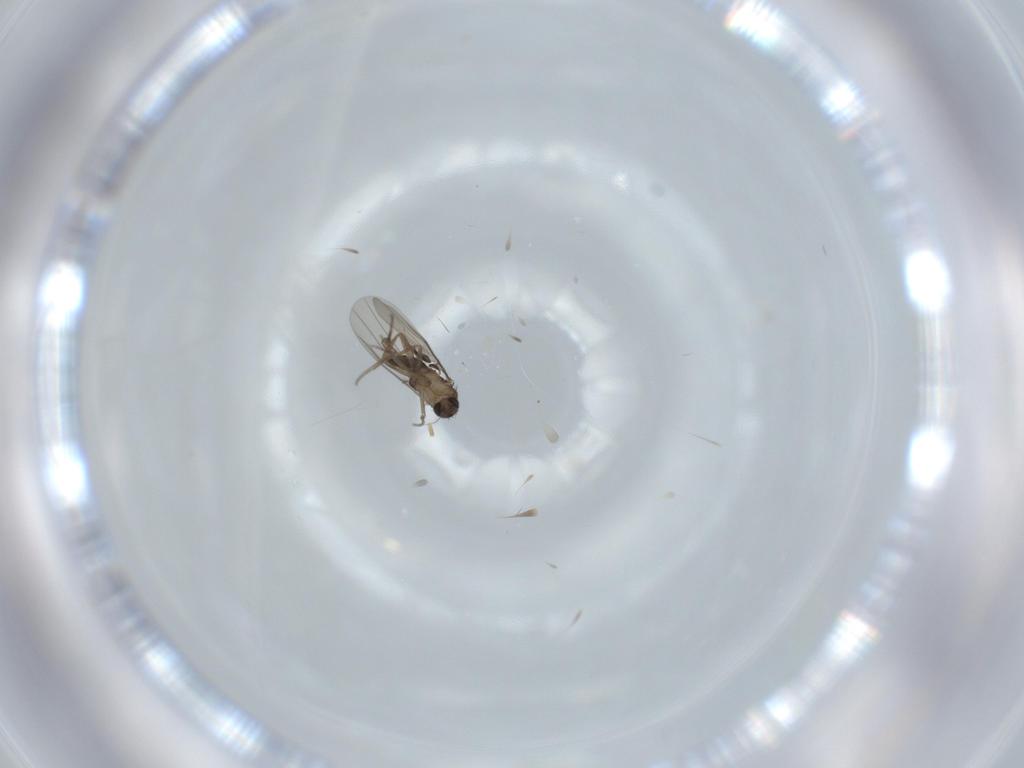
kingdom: Animalia
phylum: Arthropoda
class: Insecta
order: Diptera
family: Phoridae
